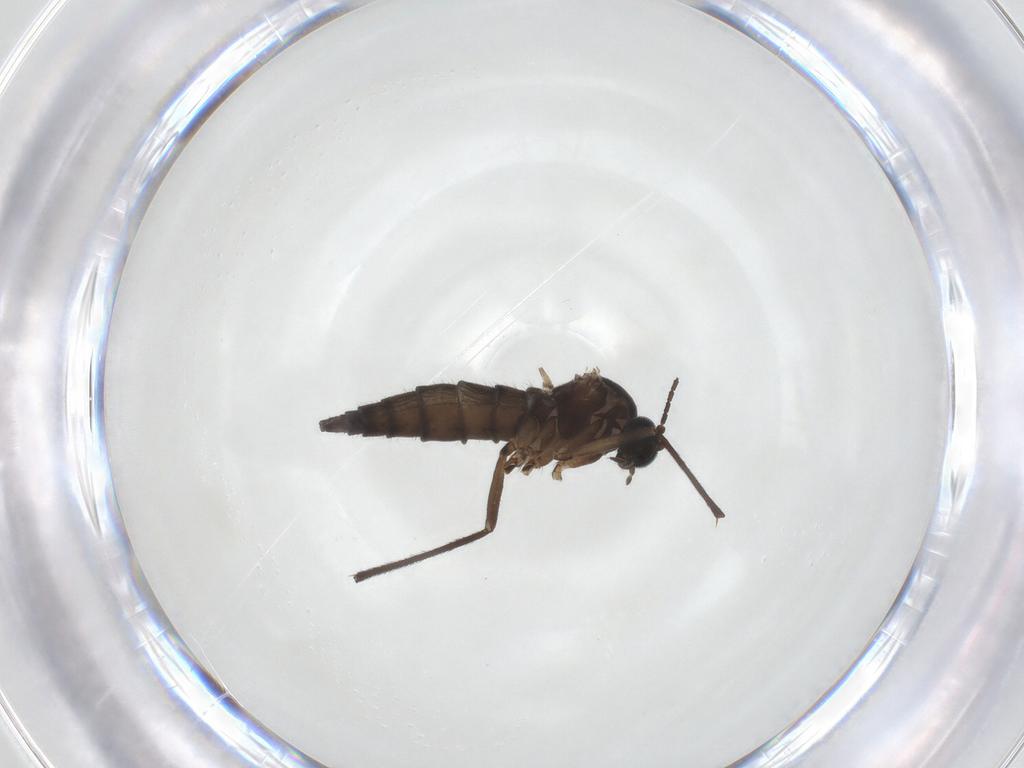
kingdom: Animalia
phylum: Arthropoda
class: Insecta
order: Diptera
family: Sciaridae
